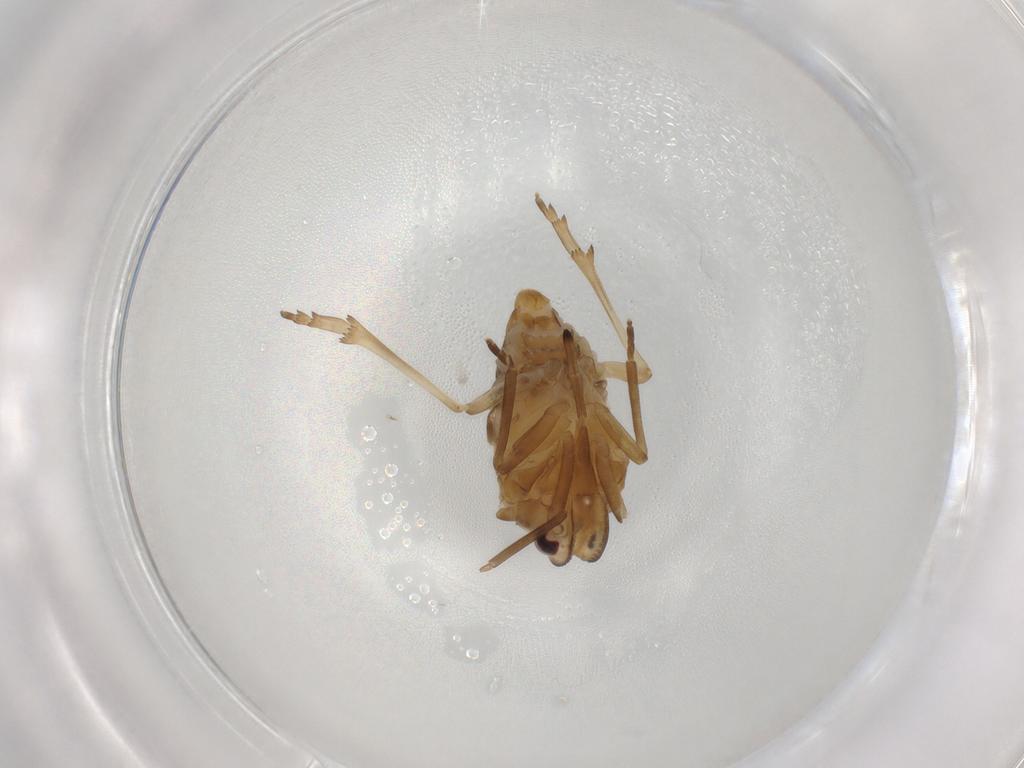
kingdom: Animalia
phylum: Arthropoda
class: Insecta
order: Hemiptera
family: Meenoplidae
